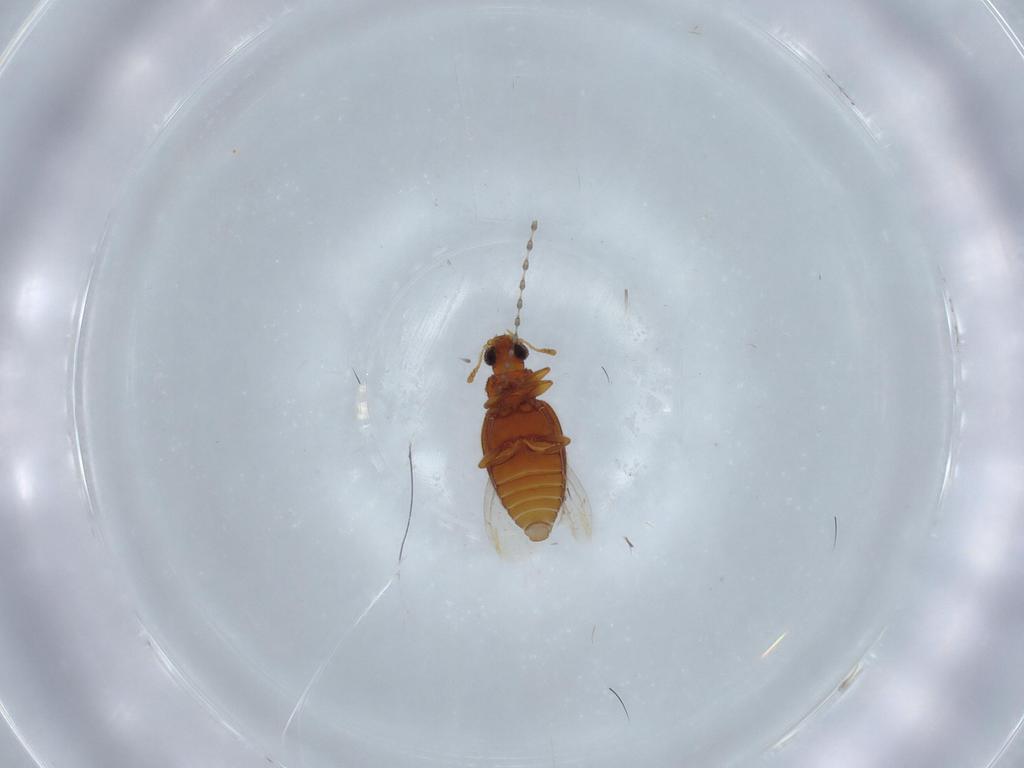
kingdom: Animalia
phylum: Arthropoda
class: Insecta
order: Coleoptera
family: Latridiidae
